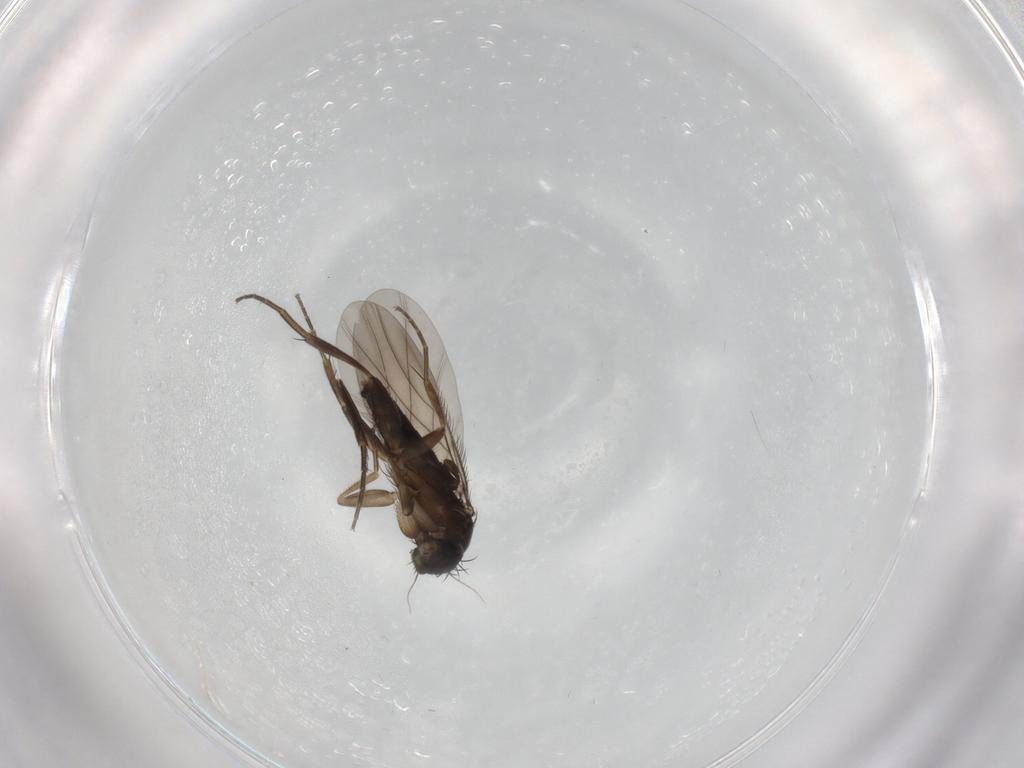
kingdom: Animalia
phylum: Arthropoda
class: Insecta
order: Diptera
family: Phoridae
